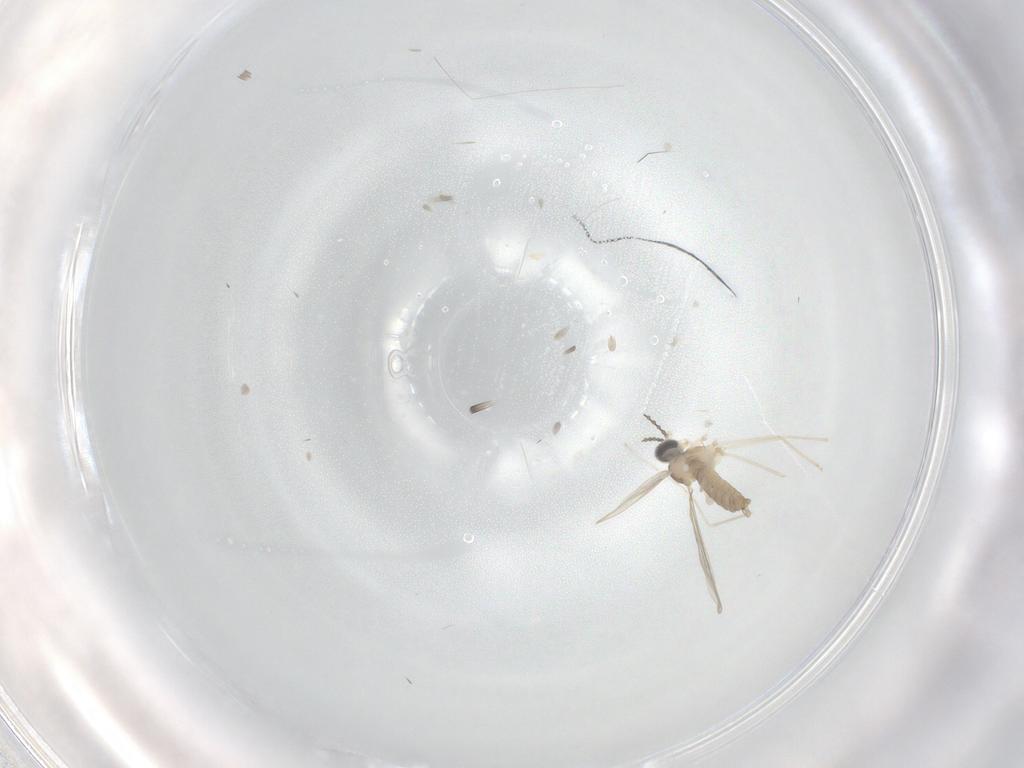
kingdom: Animalia
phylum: Arthropoda
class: Insecta
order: Diptera
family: Cecidomyiidae
